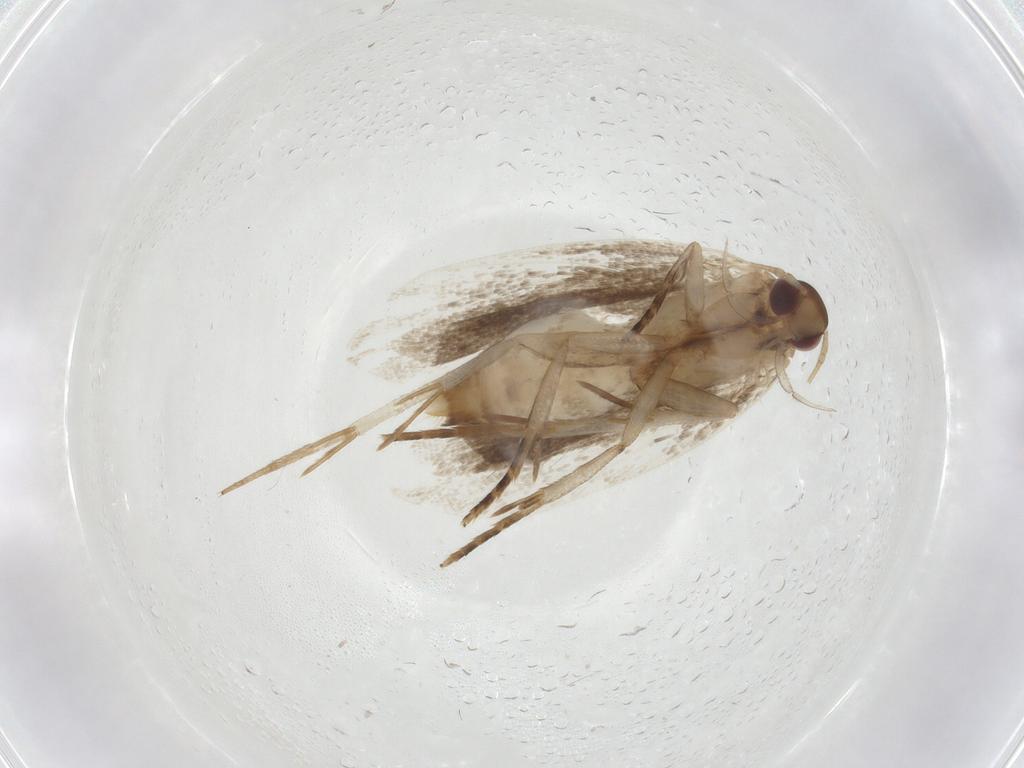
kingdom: Animalia
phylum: Arthropoda
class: Insecta
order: Lepidoptera
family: Gelechiidae
